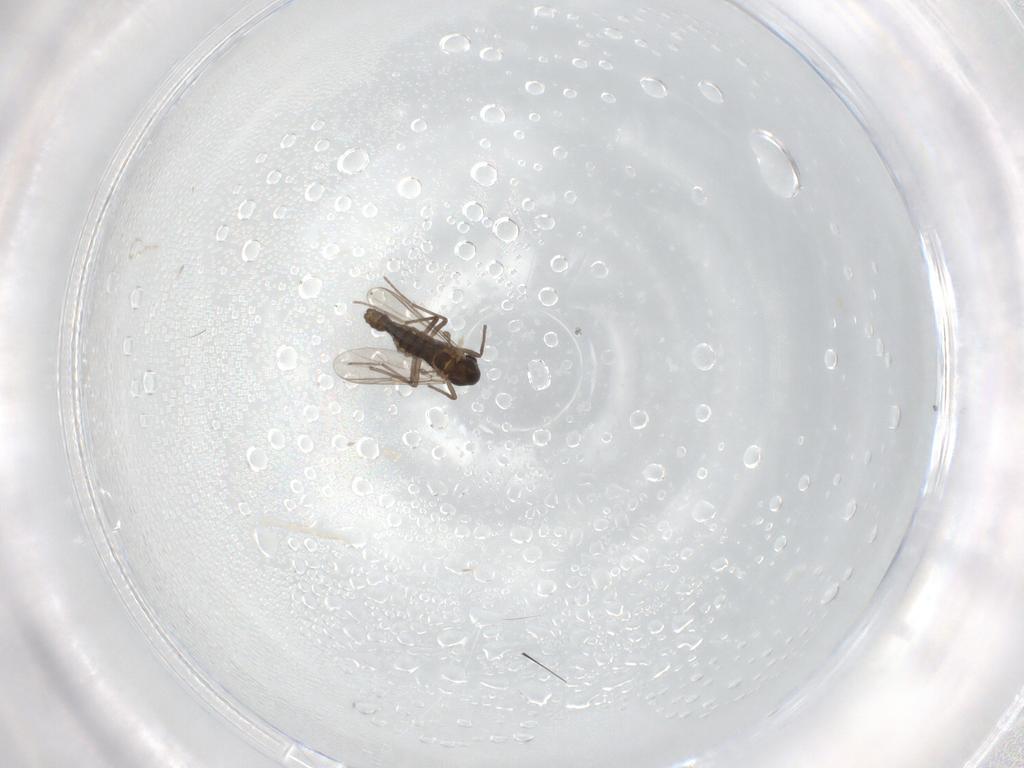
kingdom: Animalia
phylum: Arthropoda
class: Insecta
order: Diptera
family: Chironomidae
